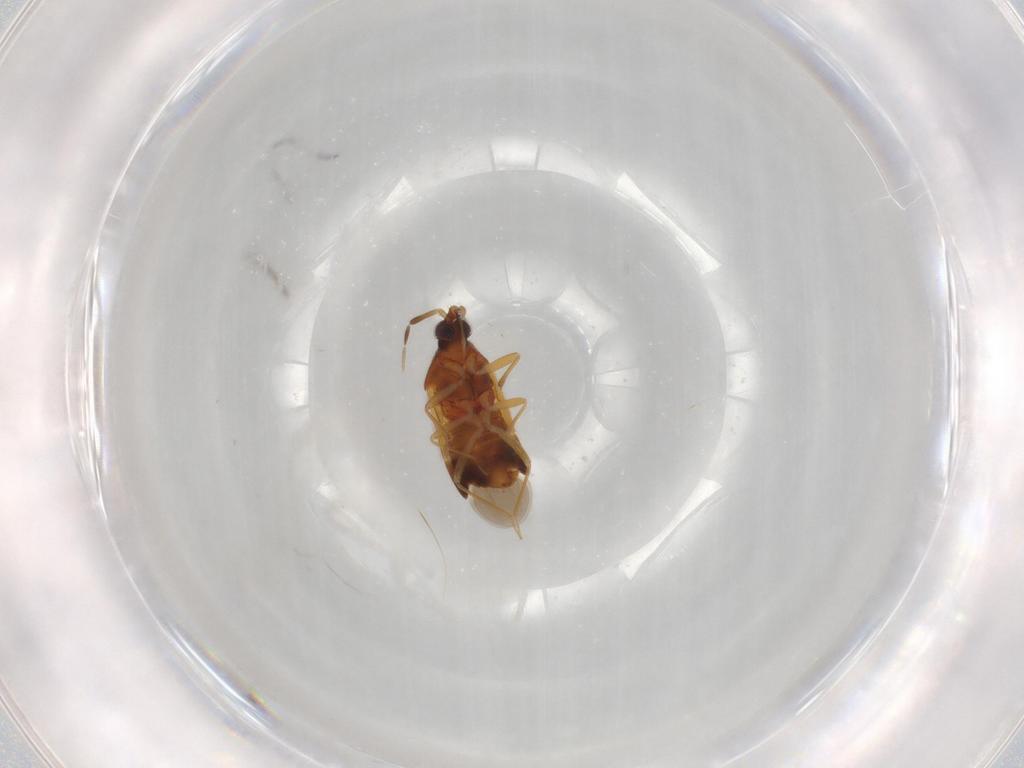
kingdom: Animalia
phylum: Arthropoda
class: Insecta
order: Hemiptera
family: Anthocoridae
